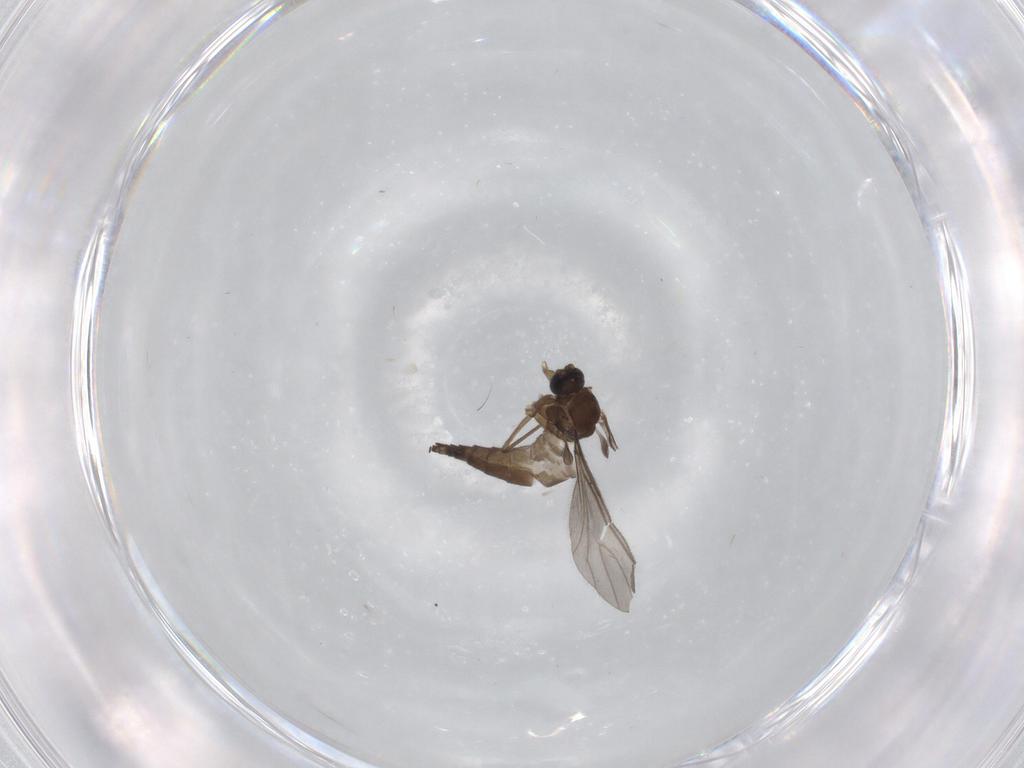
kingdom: Animalia
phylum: Arthropoda
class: Insecta
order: Diptera
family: Sciaridae
